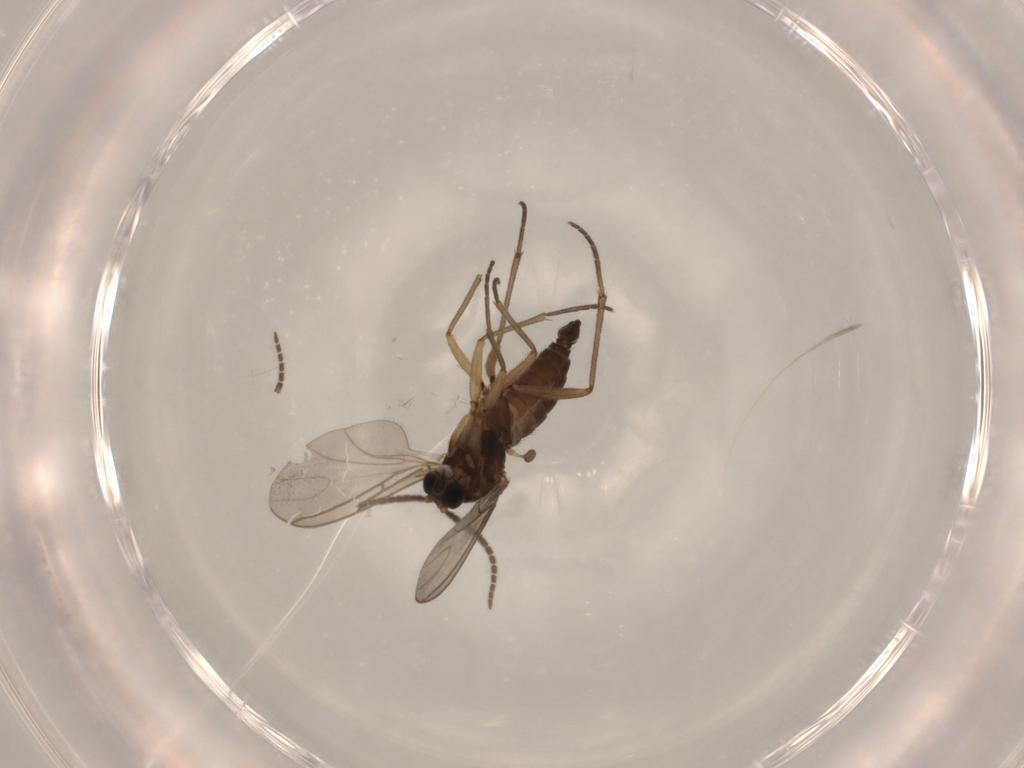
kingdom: Animalia
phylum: Arthropoda
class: Insecta
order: Diptera
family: Sciaridae
